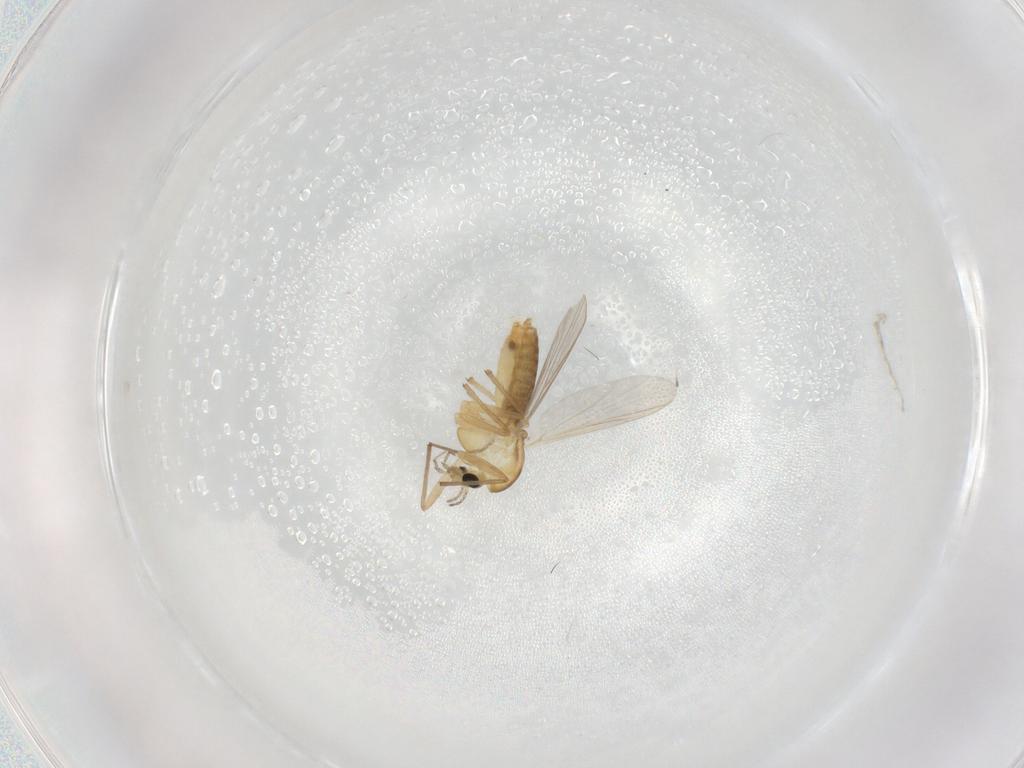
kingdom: Animalia
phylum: Arthropoda
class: Insecta
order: Diptera
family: Chironomidae
